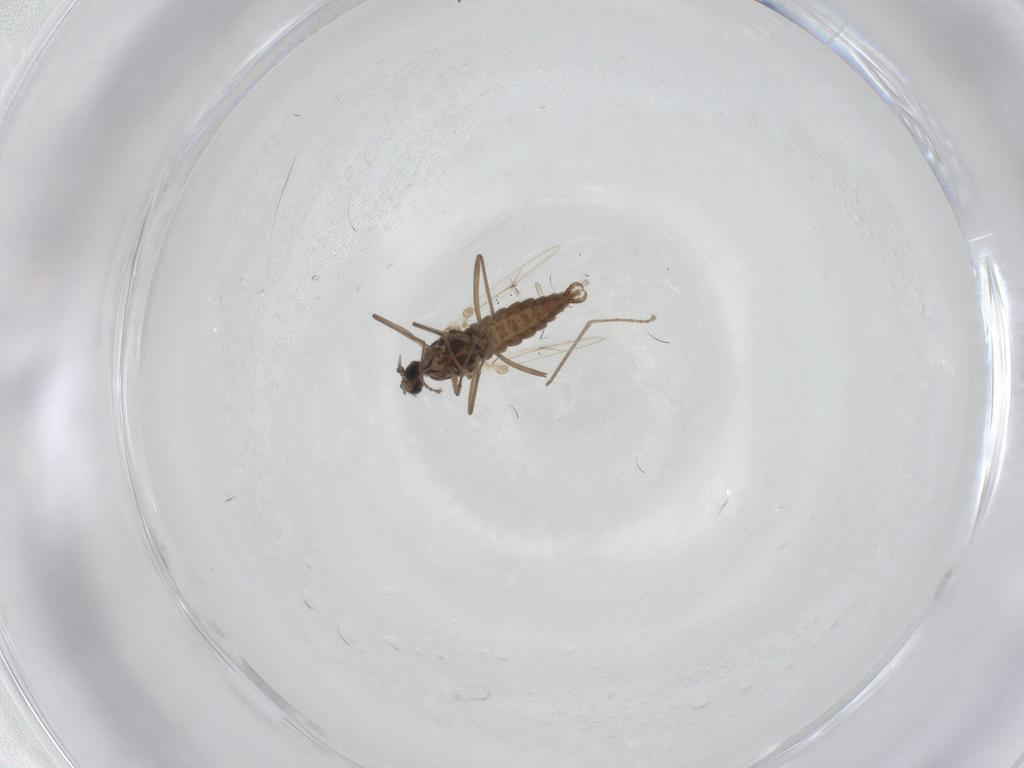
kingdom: Animalia
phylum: Arthropoda
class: Insecta
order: Diptera
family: Cecidomyiidae
